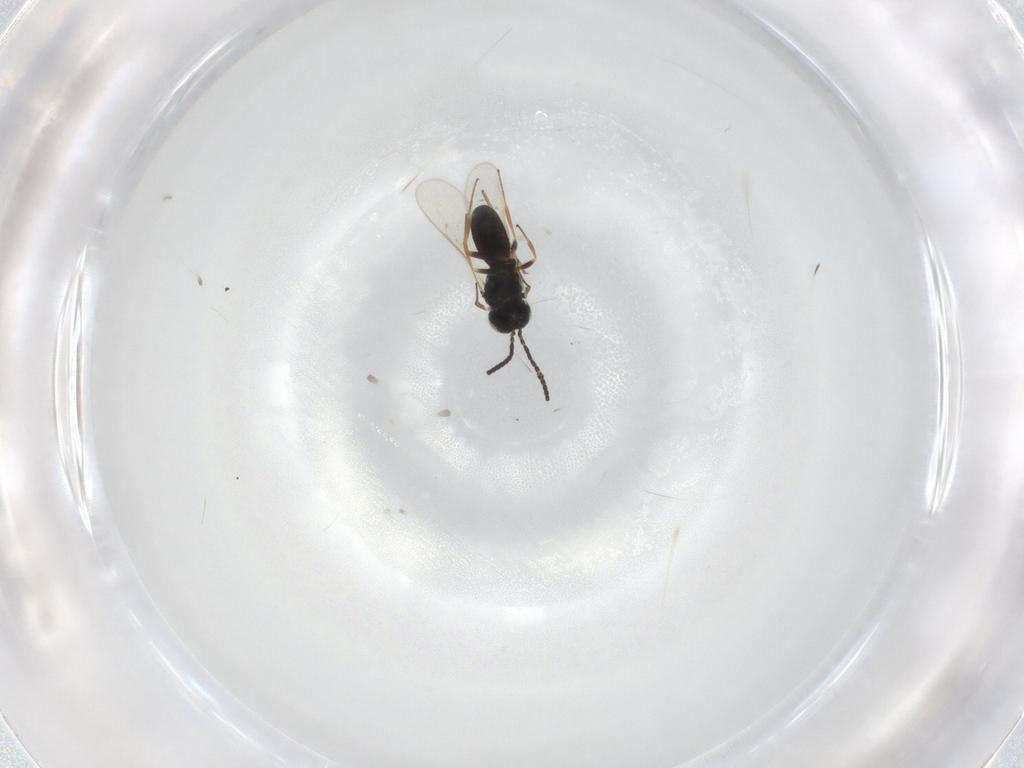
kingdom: Animalia
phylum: Arthropoda
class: Insecta
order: Hymenoptera
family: Scelionidae
